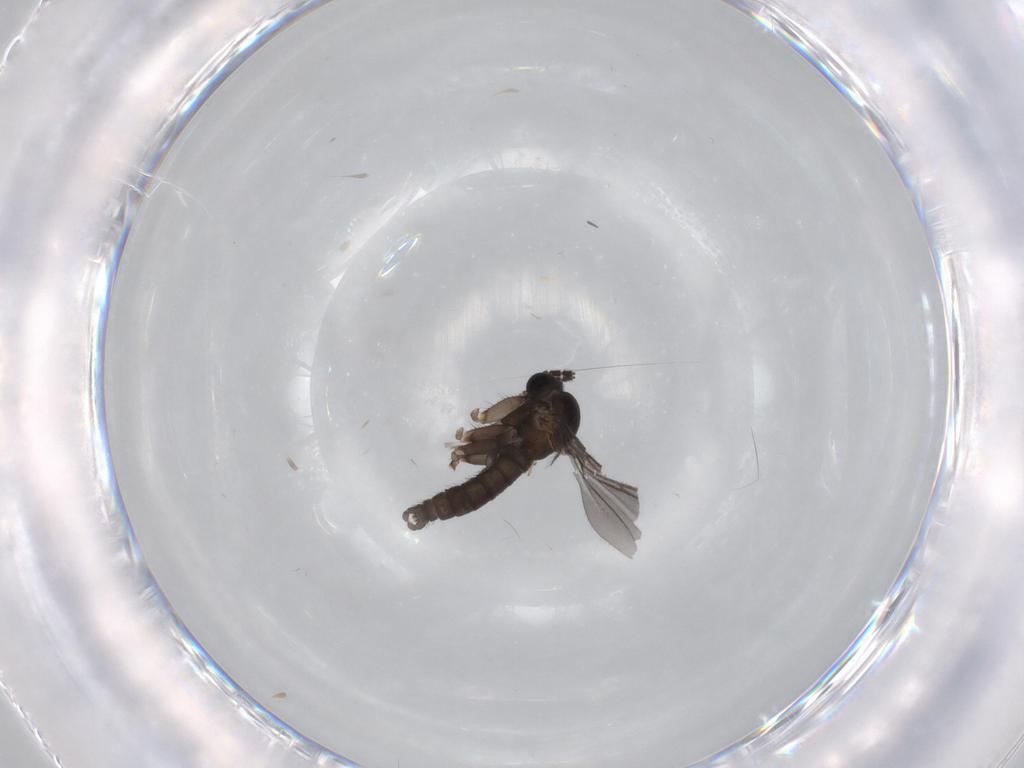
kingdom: Animalia
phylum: Arthropoda
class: Insecta
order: Diptera
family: Sciaridae
